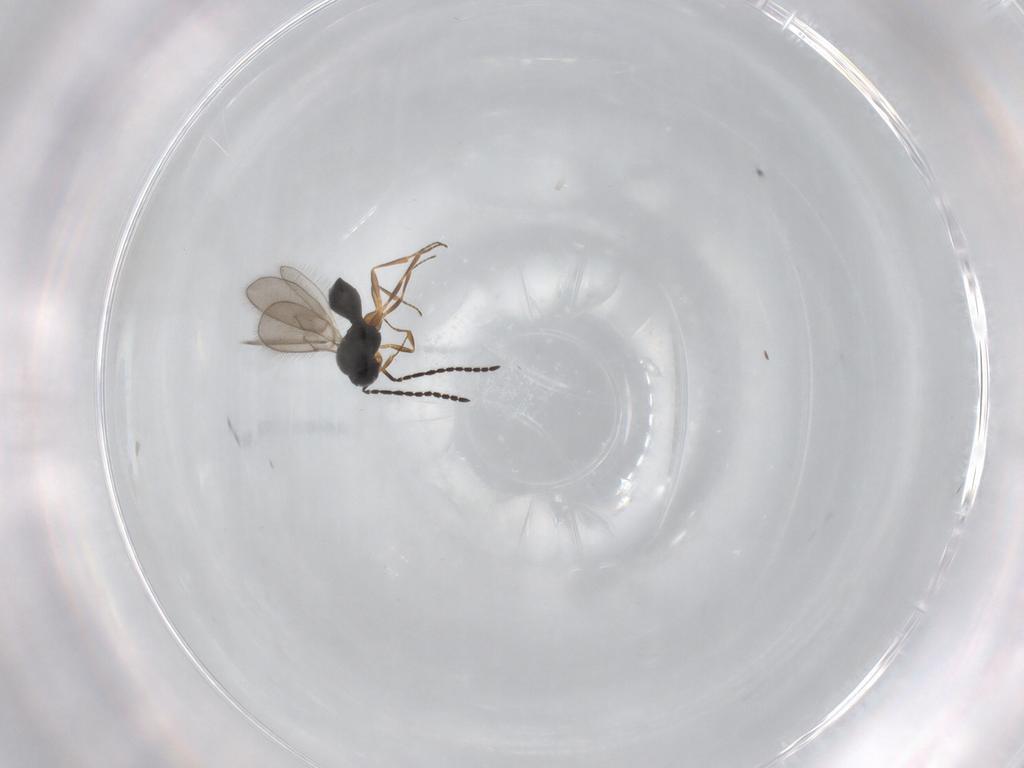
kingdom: Animalia
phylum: Arthropoda
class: Insecta
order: Hymenoptera
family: Scelionidae
